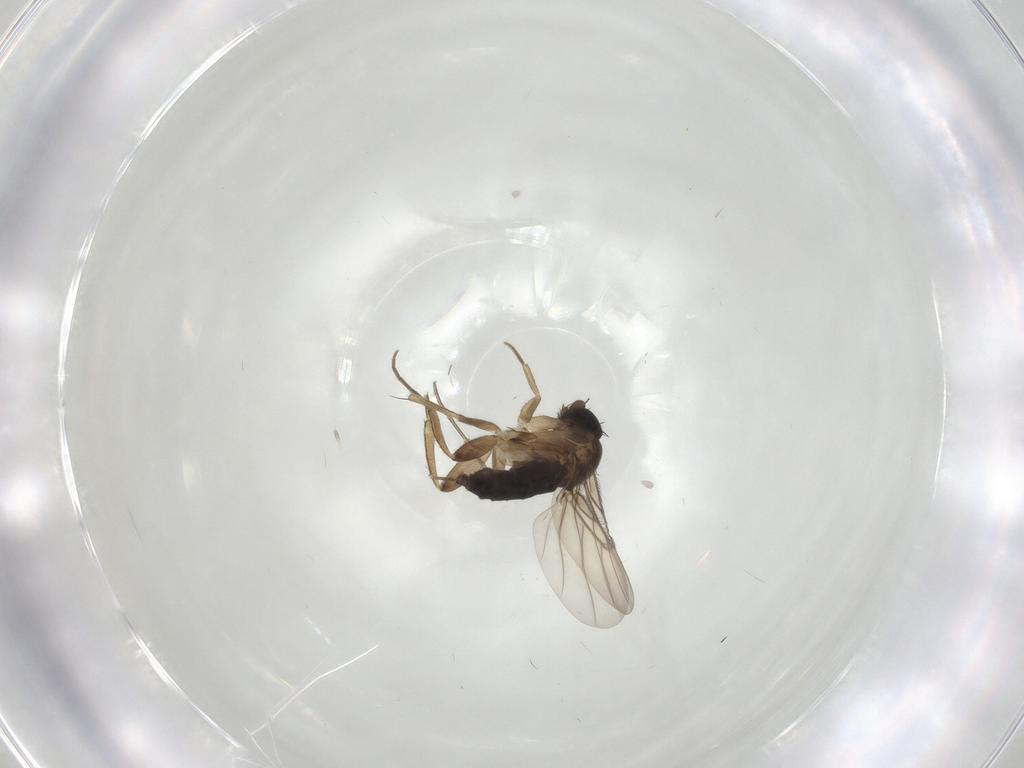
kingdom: Animalia
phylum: Arthropoda
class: Insecta
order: Diptera
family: Phoridae
